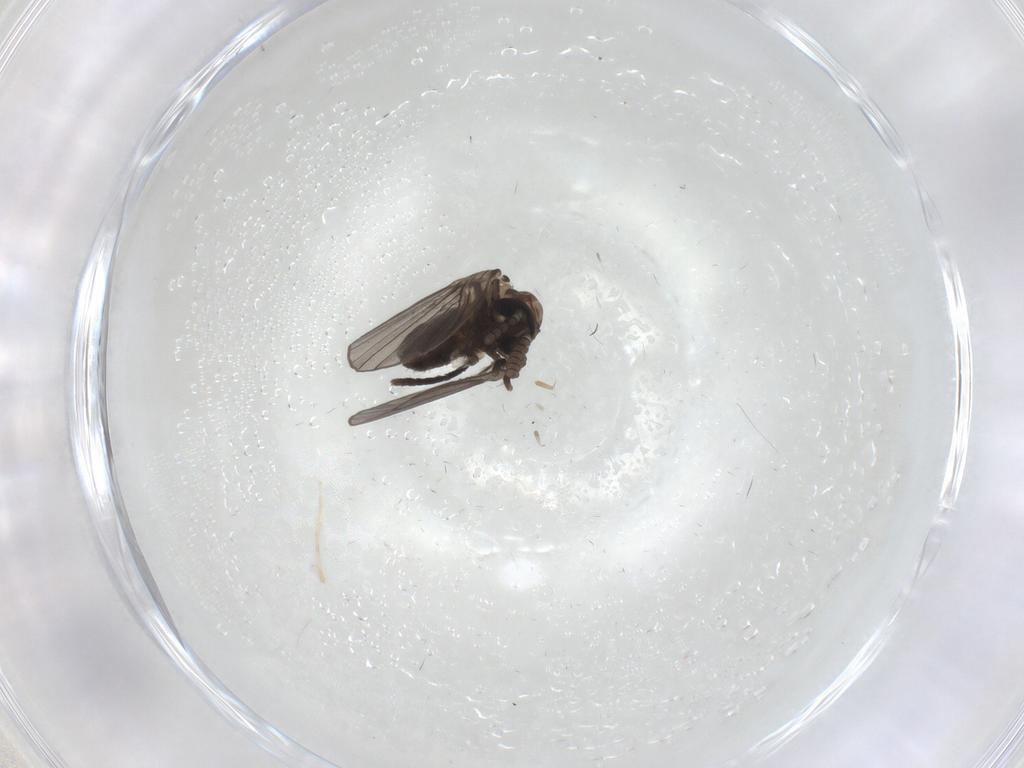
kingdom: Animalia
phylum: Arthropoda
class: Insecta
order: Diptera
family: Psychodidae
